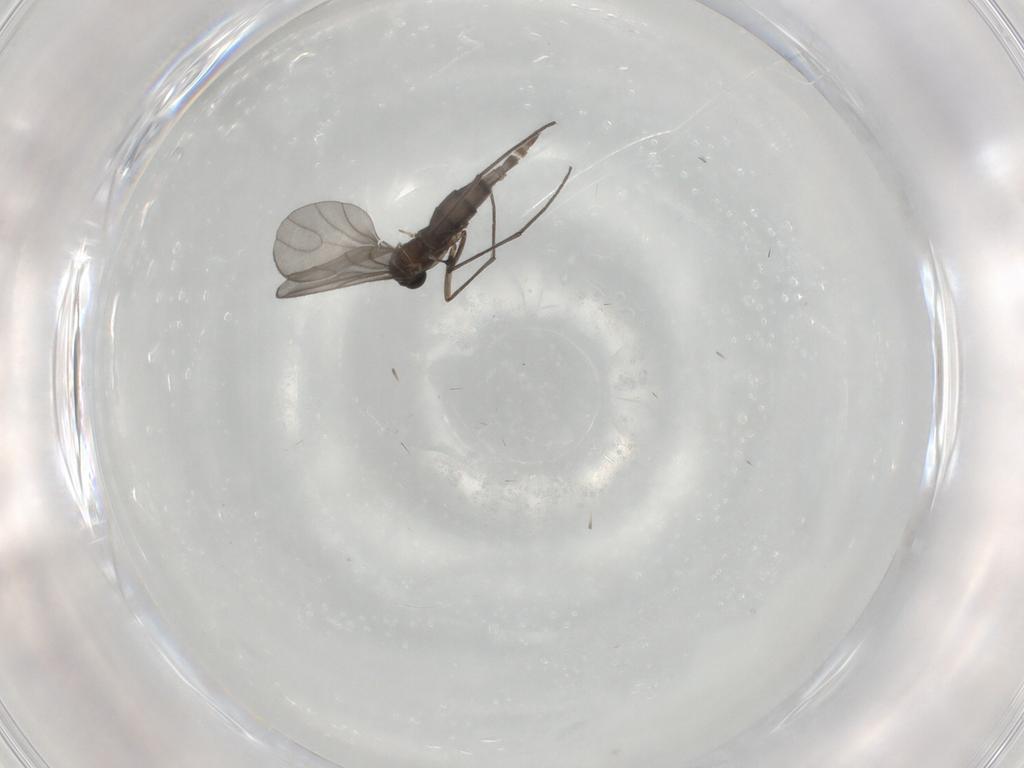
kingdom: Animalia
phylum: Arthropoda
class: Insecta
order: Diptera
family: Sciaridae
